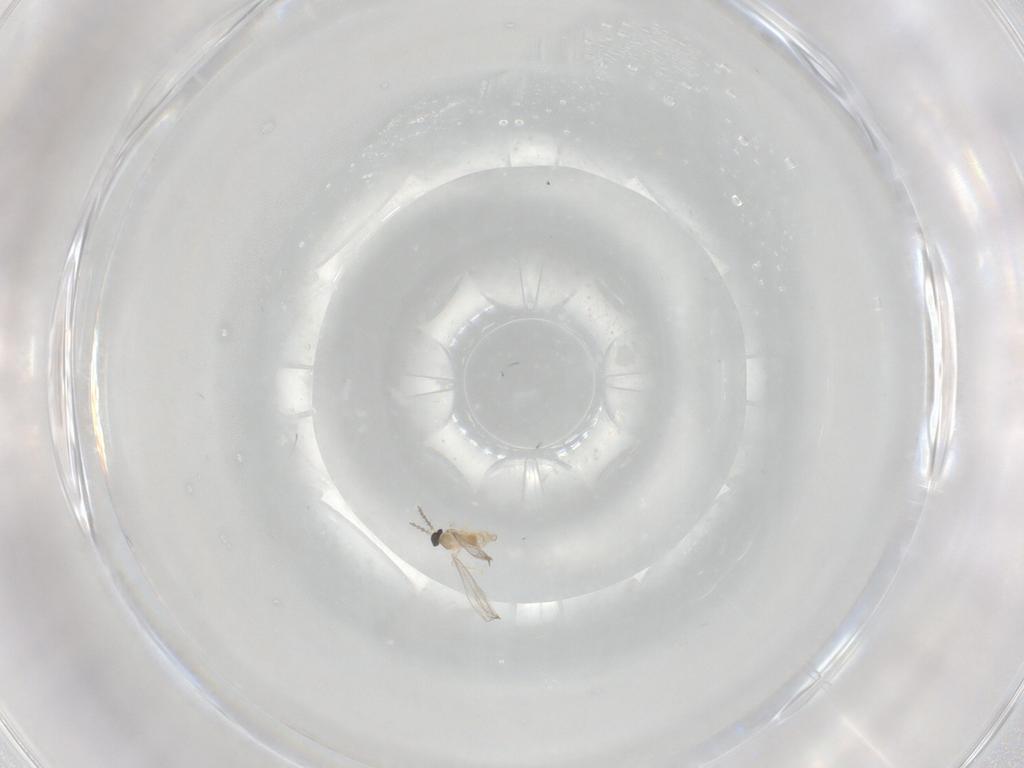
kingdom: Animalia
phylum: Arthropoda
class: Insecta
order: Diptera
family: Cecidomyiidae
